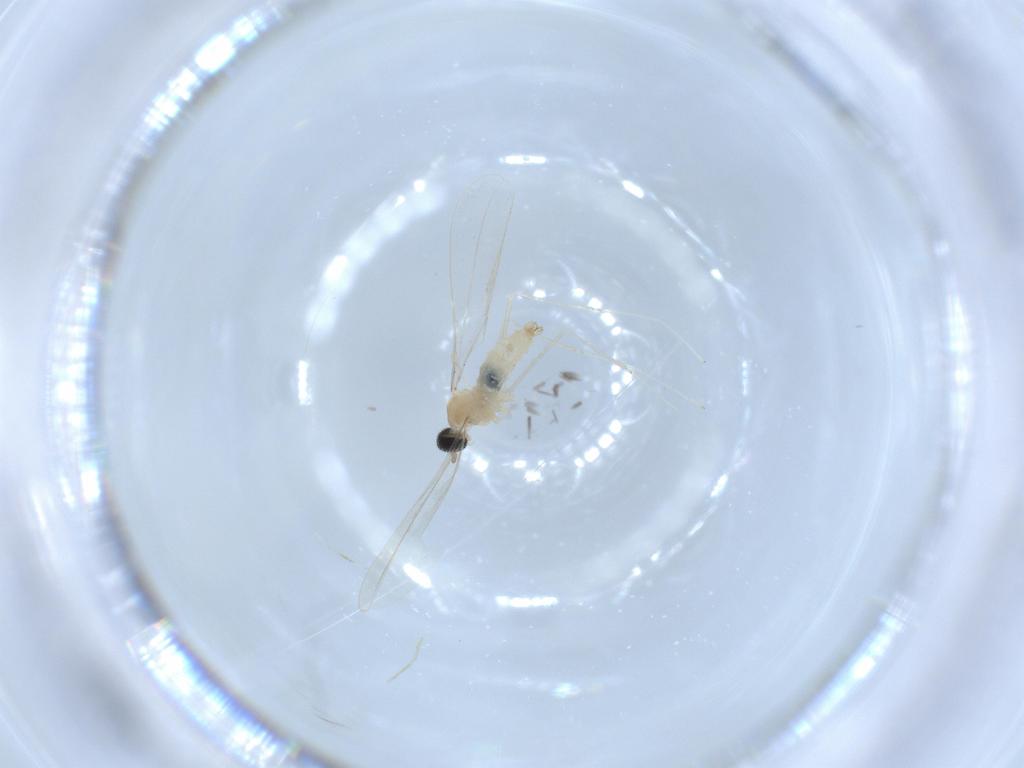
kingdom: Animalia
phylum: Arthropoda
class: Insecta
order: Diptera
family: Cecidomyiidae
